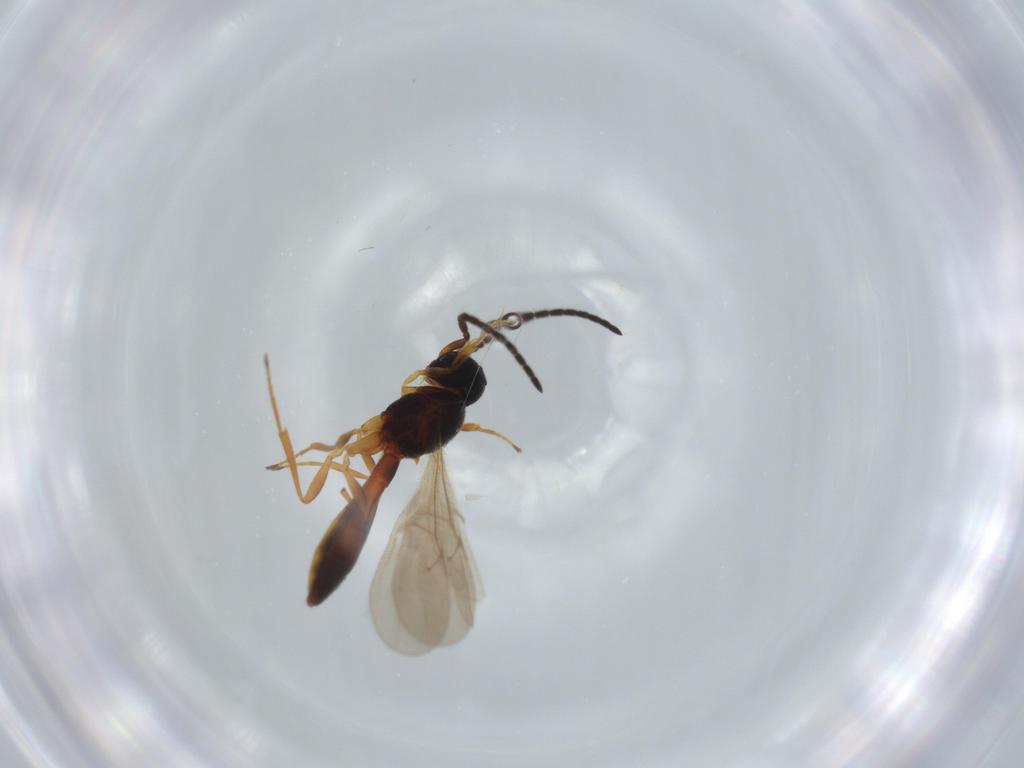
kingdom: Animalia
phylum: Arthropoda
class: Insecta
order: Hymenoptera
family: Scelionidae
